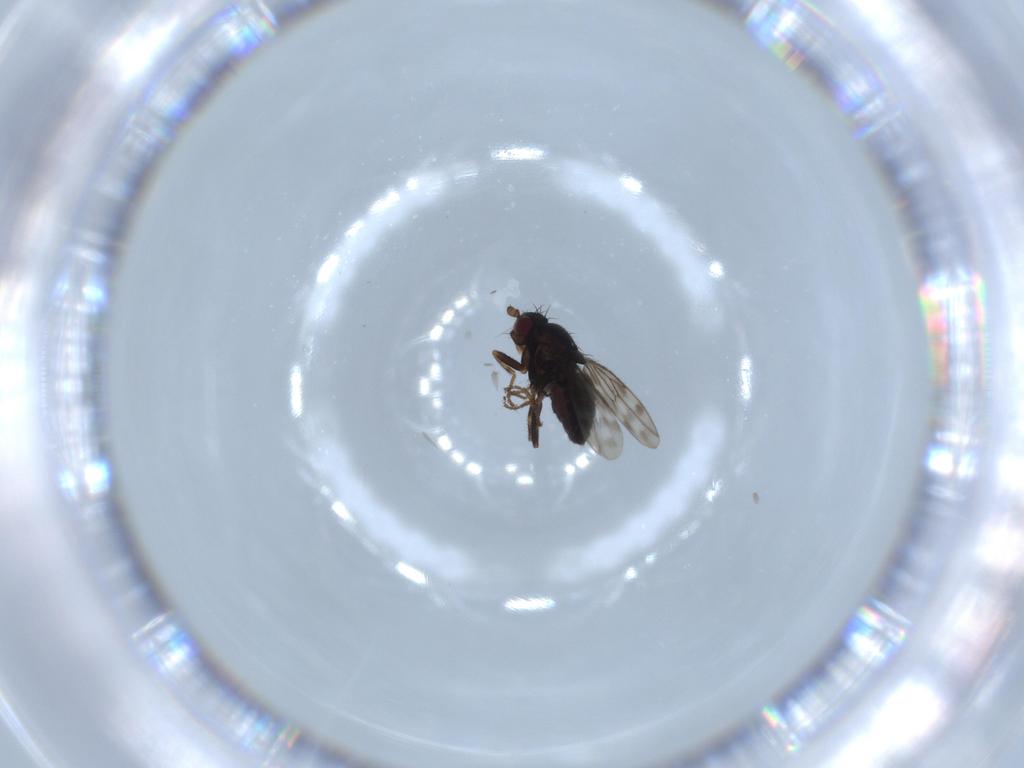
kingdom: Animalia
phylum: Arthropoda
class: Insecta
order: Diptera
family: Sphaeroceridae
